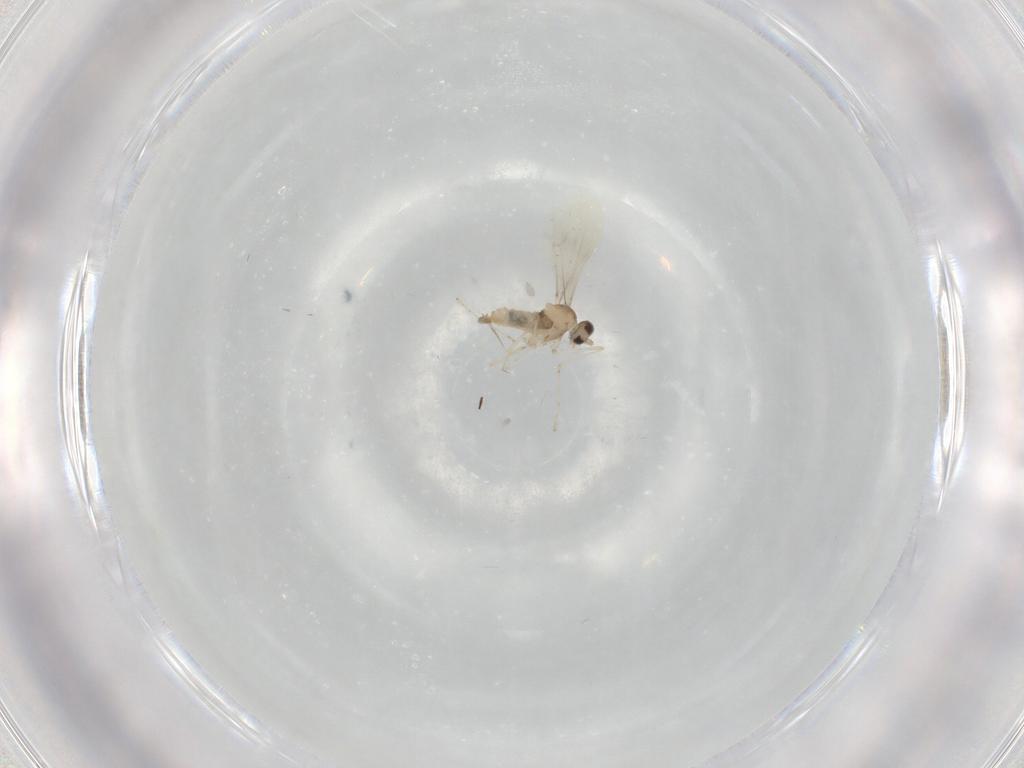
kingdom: Animalia
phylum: Arthropoda
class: Insecta
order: Diptera
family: Cecidomyiidae
